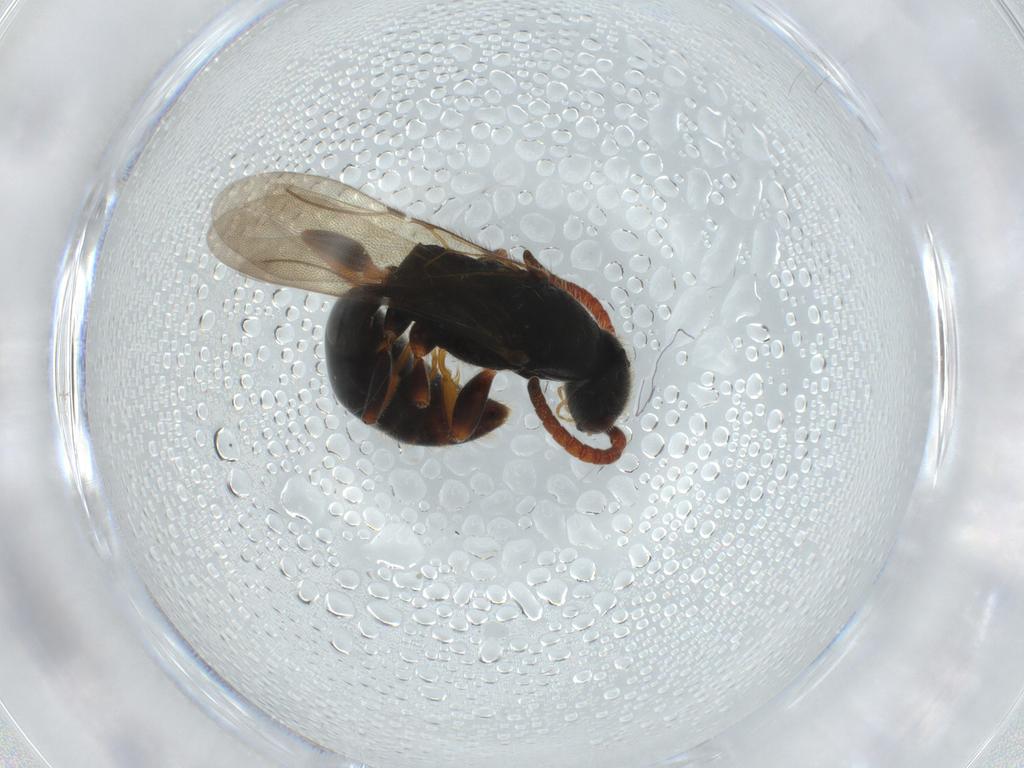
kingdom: Animalia
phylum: Arthropoda
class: Insecta
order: Hymenoptera
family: Bethylidae
